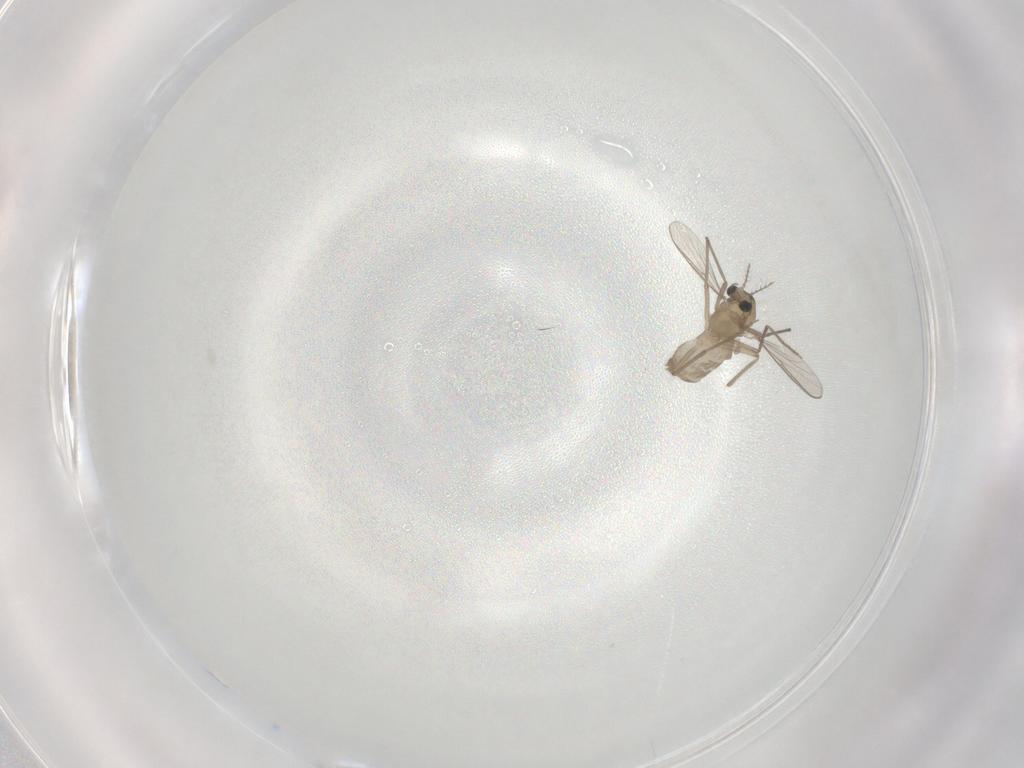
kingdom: Animalia
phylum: Arthropoda
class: Insecta
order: Diptera
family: Chironomidae
